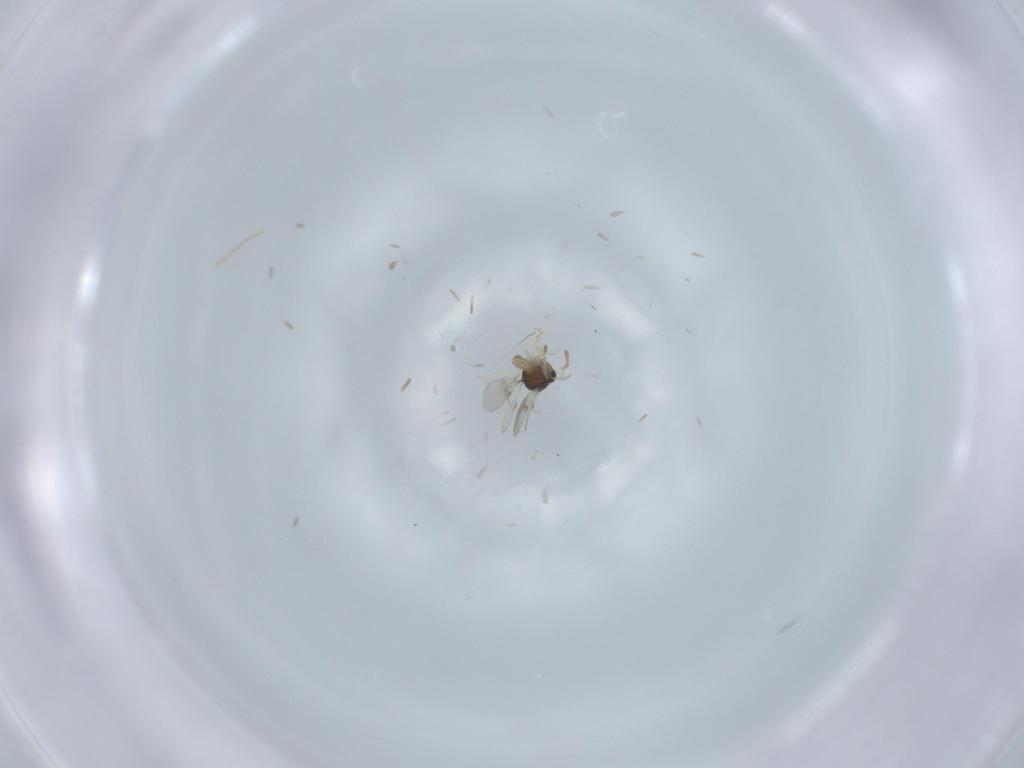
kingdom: Animalia
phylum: Arthropoda
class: Insecta
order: Hymenoptera
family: Scelionidae
